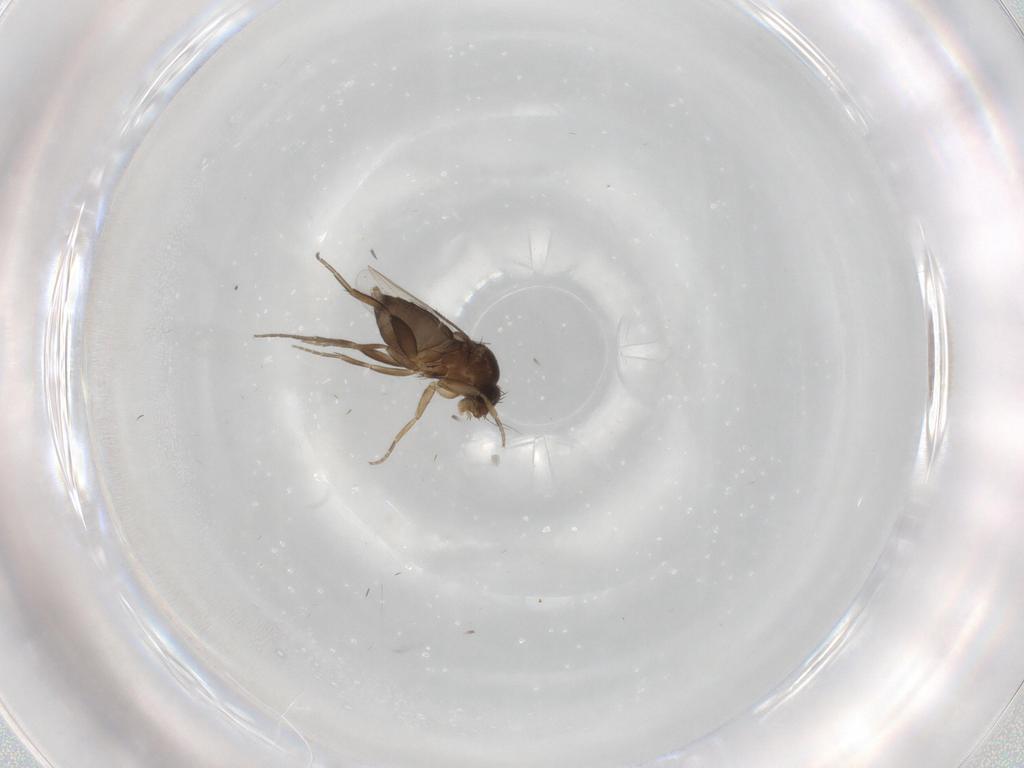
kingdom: Animalia
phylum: Arthropoda
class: Insecta
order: Diptera
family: Phoridae
